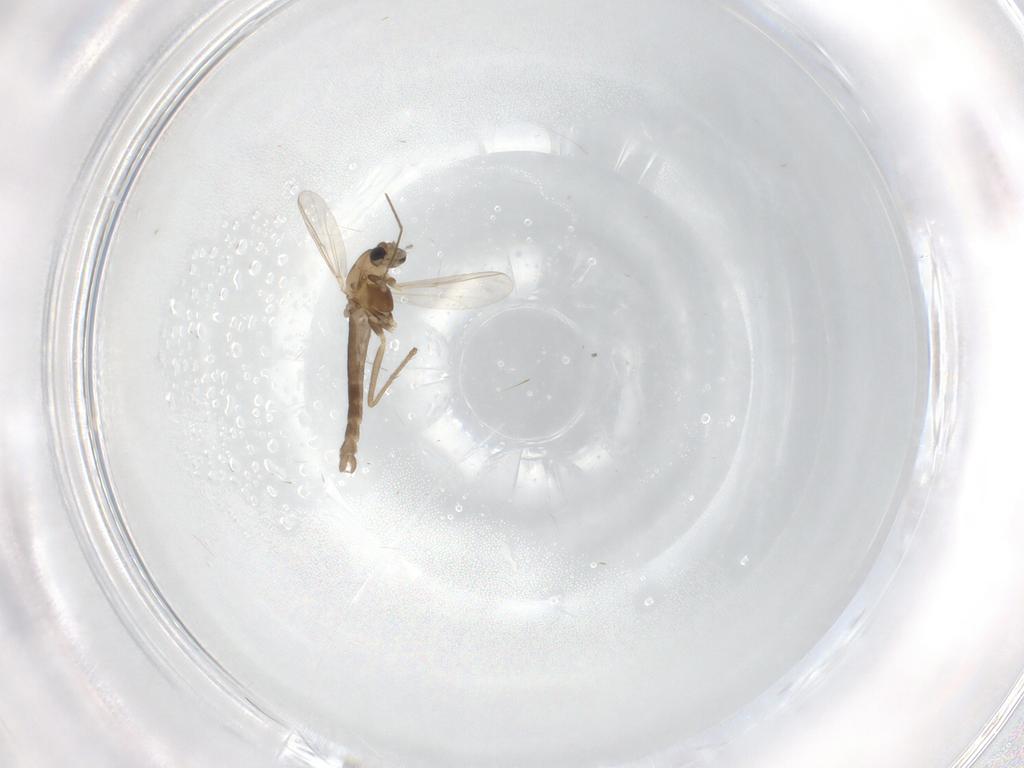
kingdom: Animalia
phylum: Arthropoda
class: Insecta
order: Diptera
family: Chironomidae
